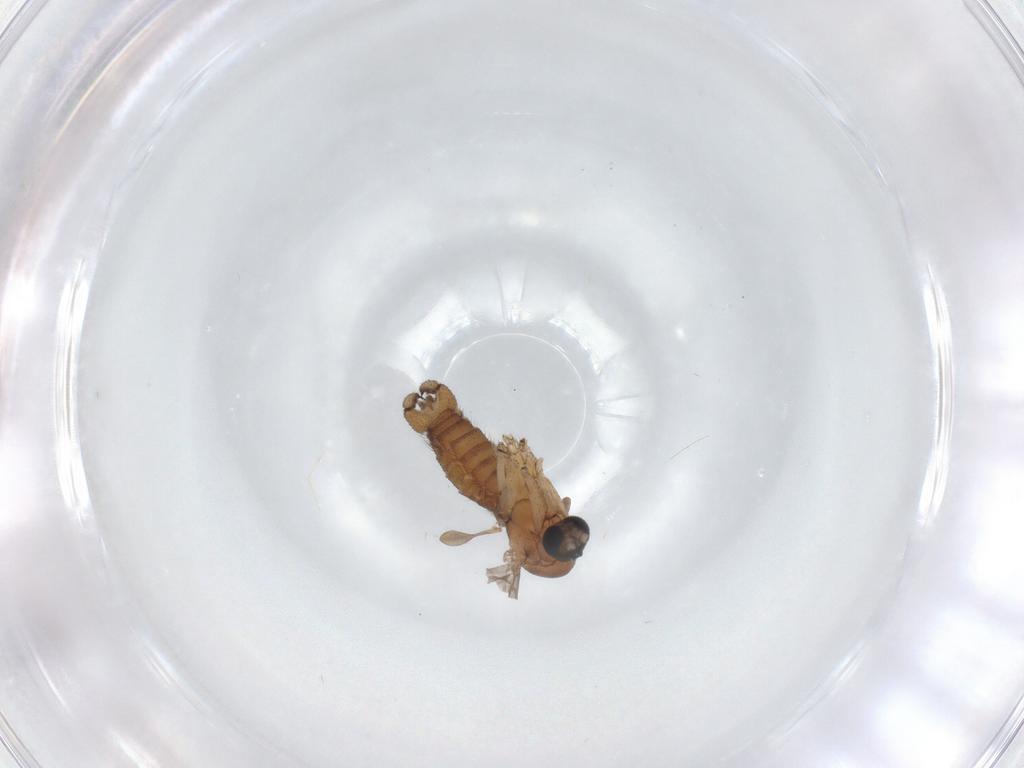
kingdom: Animalia
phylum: Arthropoda
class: Insecta
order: Diptera
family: Sciaridae
